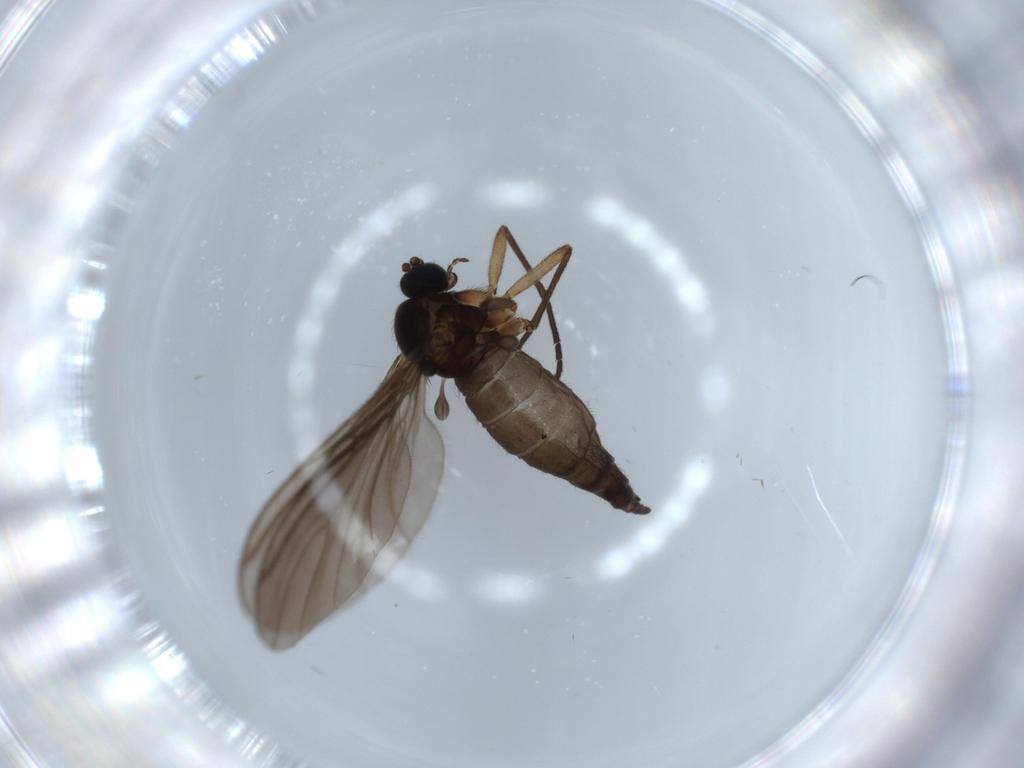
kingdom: Animalia
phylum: Arthropoda
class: Insecta
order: Diptera
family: Sciaridae
